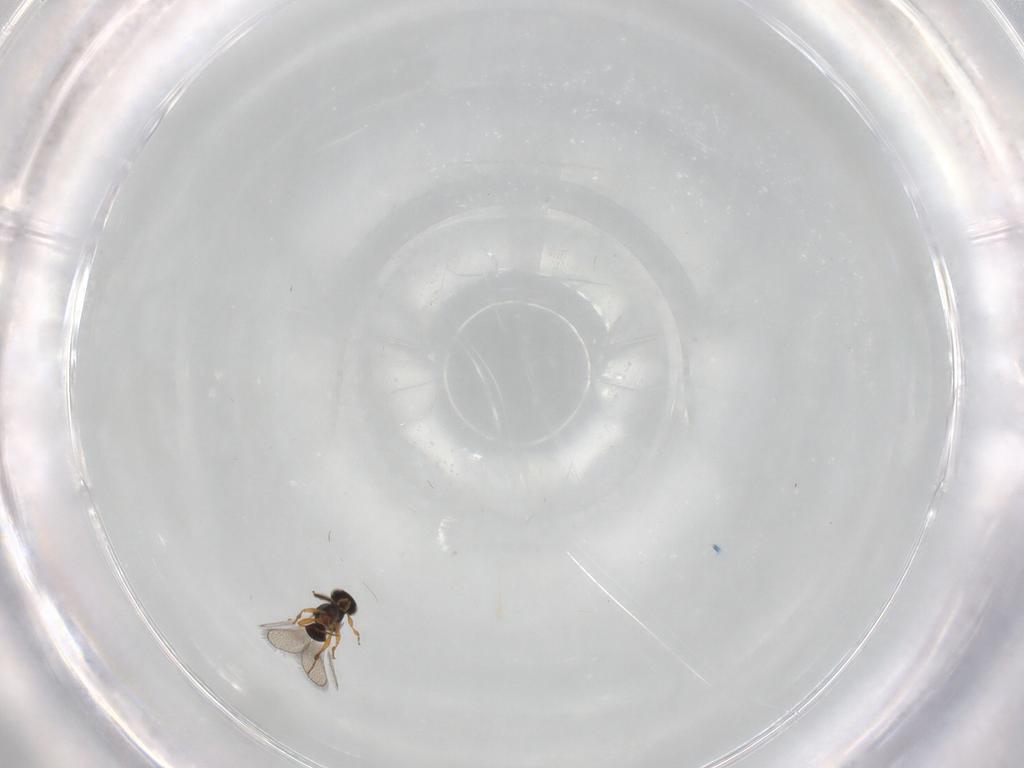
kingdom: Animalia
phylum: Arthropoda
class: Insecta
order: Hymenoptera
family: Platygastridae
